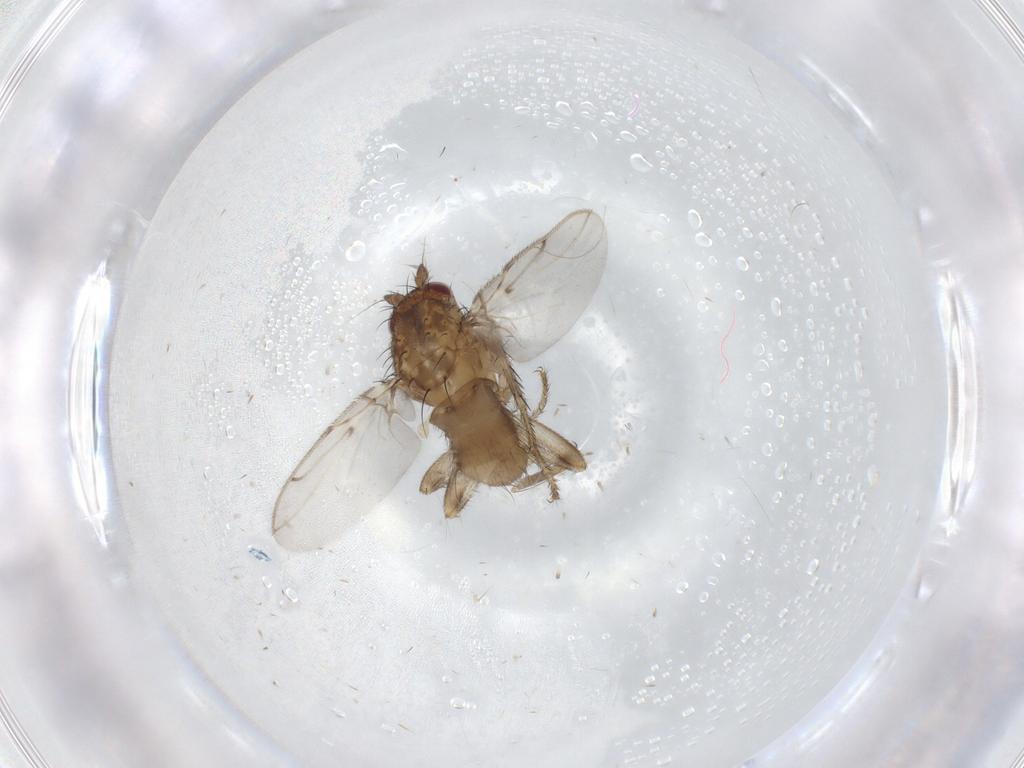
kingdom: Animalia
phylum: Arthropoda
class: Insecta
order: Diptera
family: Sphaeroceridae
